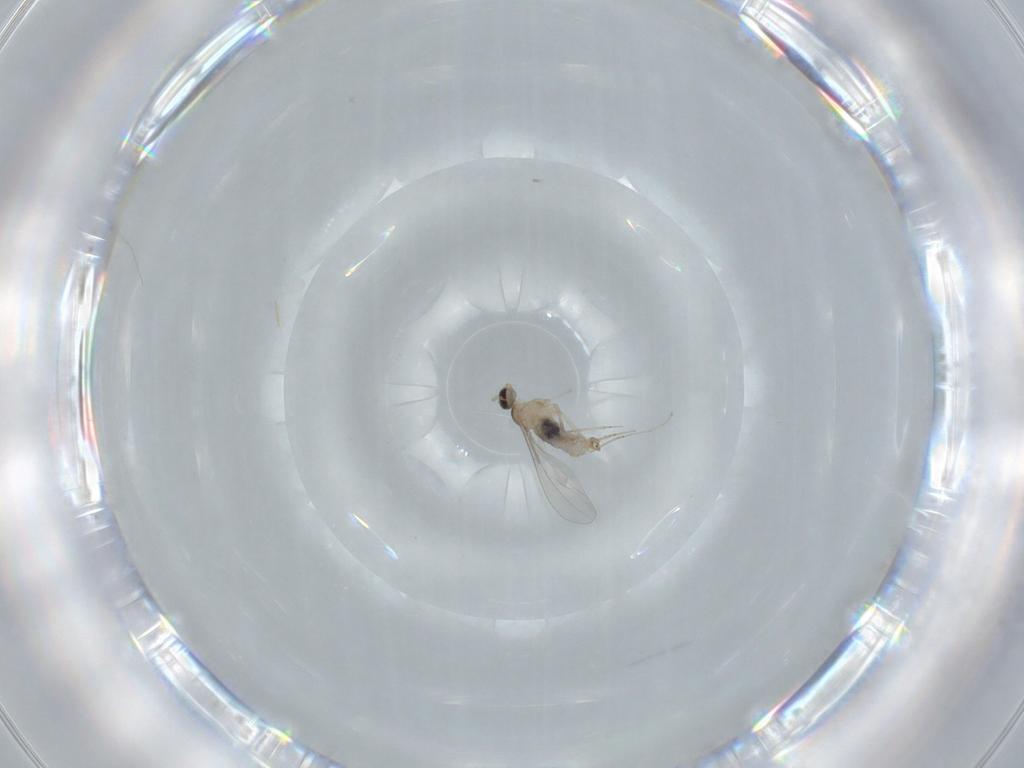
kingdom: Animalia
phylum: Arthropoda
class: Insecta
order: Diptera
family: Cecidomyiidae
